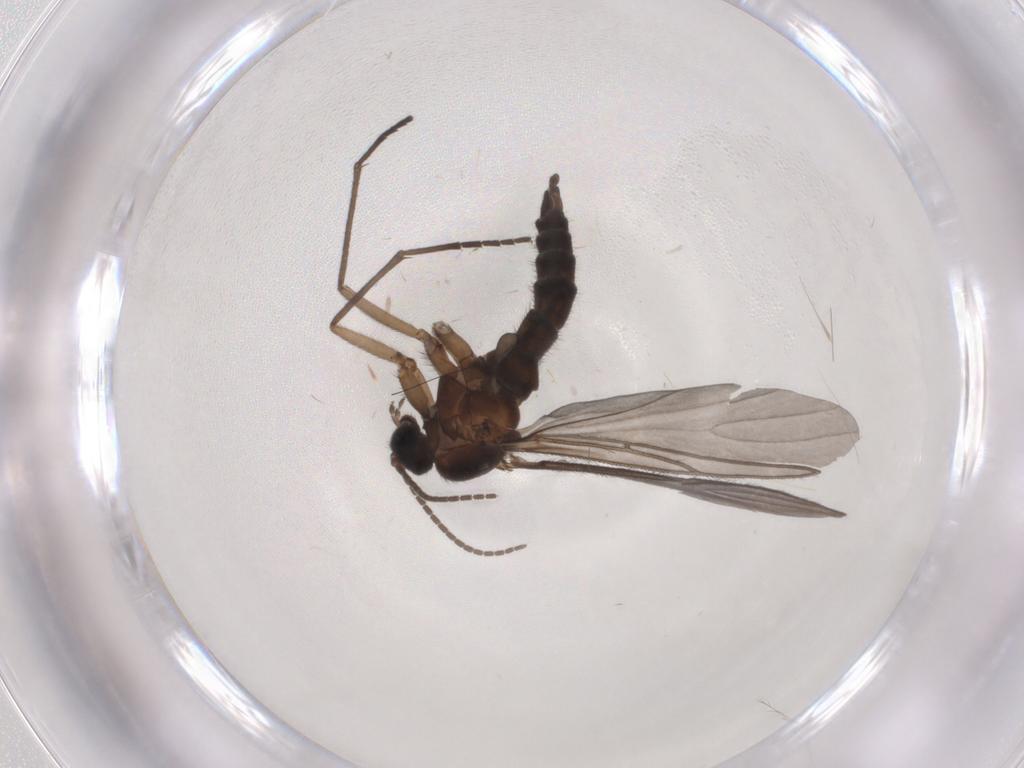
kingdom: Animalia
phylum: Arthropoda
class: Insecta
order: Diptera
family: Sciaridae
